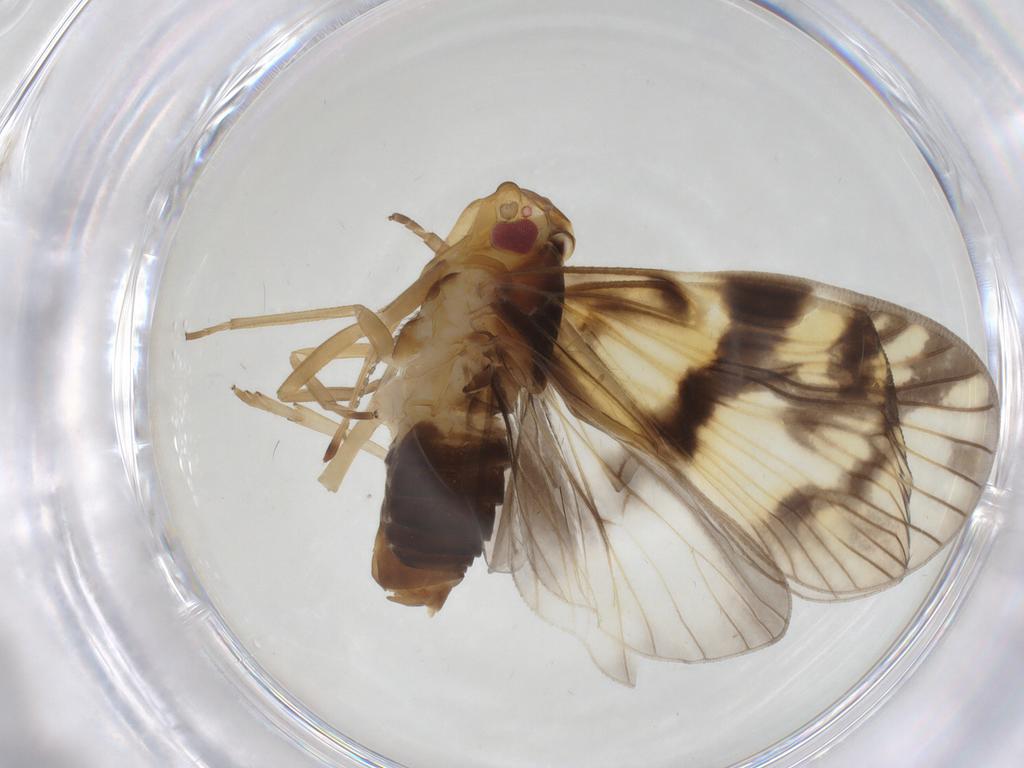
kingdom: Animalia
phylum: Arthropoda
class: Insecta
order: Hemiptera
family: Cixiidae
